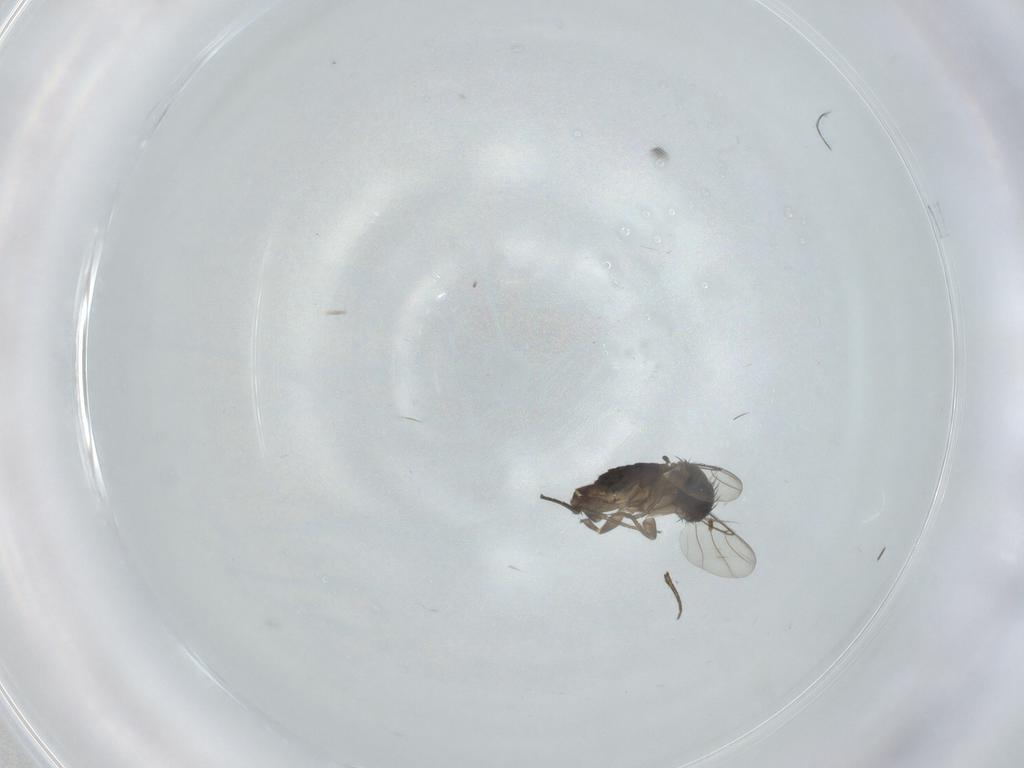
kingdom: Animalia
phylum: Arthropoda
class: Insecta
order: Diptera
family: Phoridae
